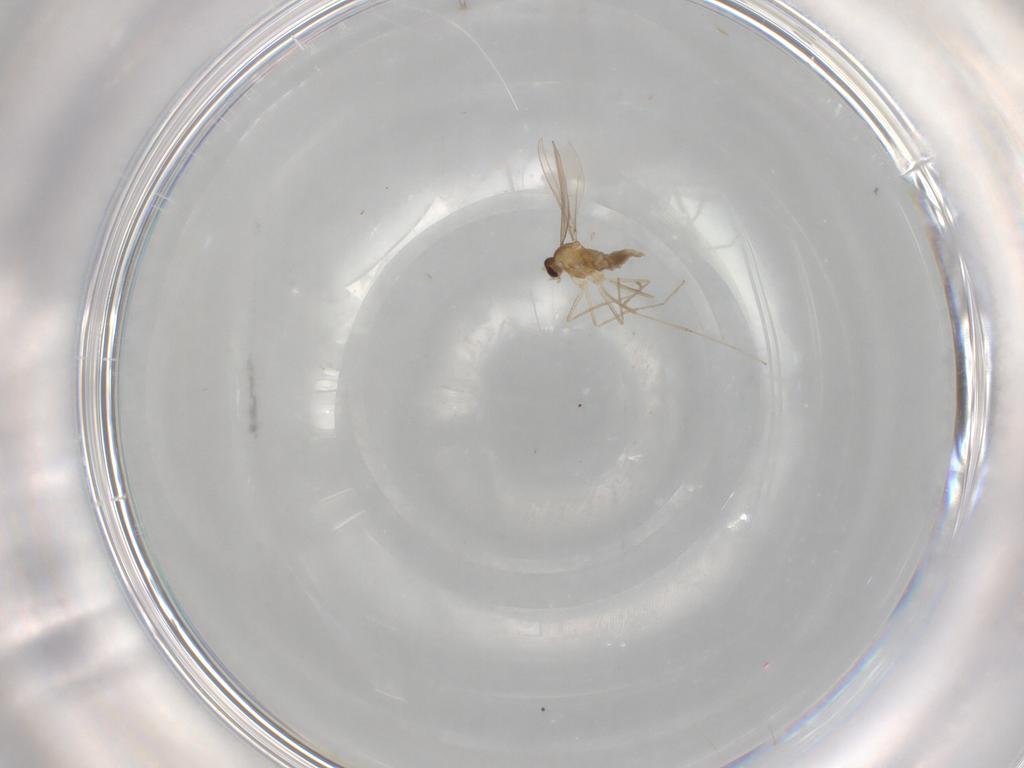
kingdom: Animalia
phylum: Arthropoda
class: Insecta
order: Diptera
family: Cecidomyiidae
